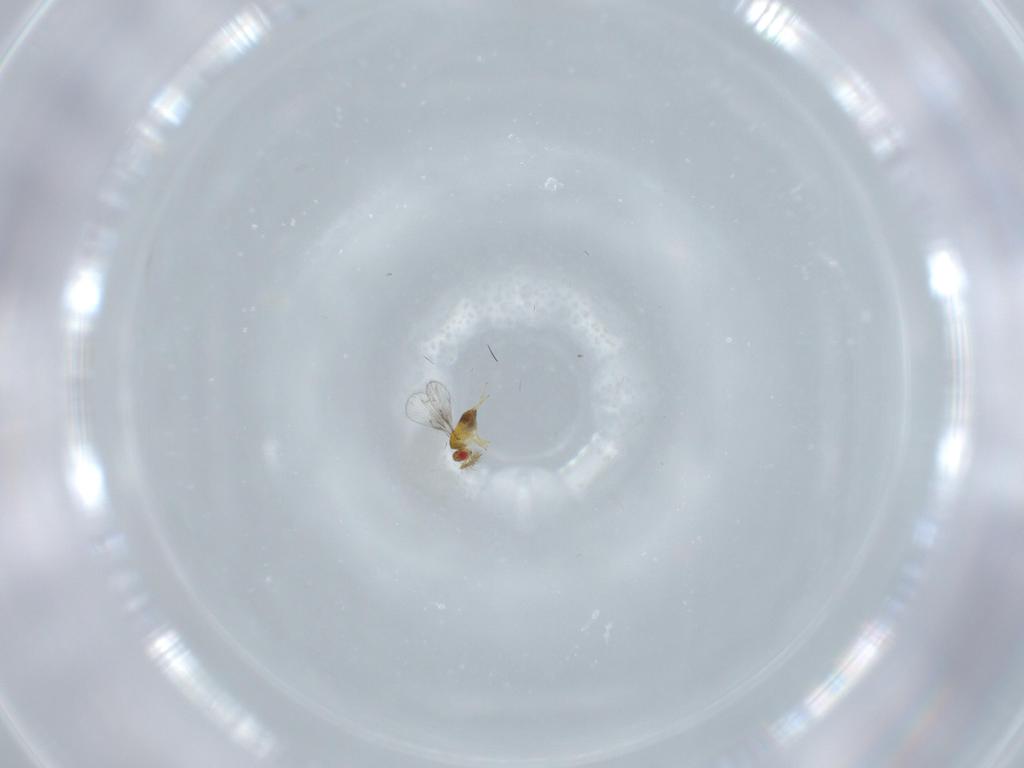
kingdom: Animalia
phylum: Arthropoda
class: Insecta
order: Hymenoptera
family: Trichogrammatidae
